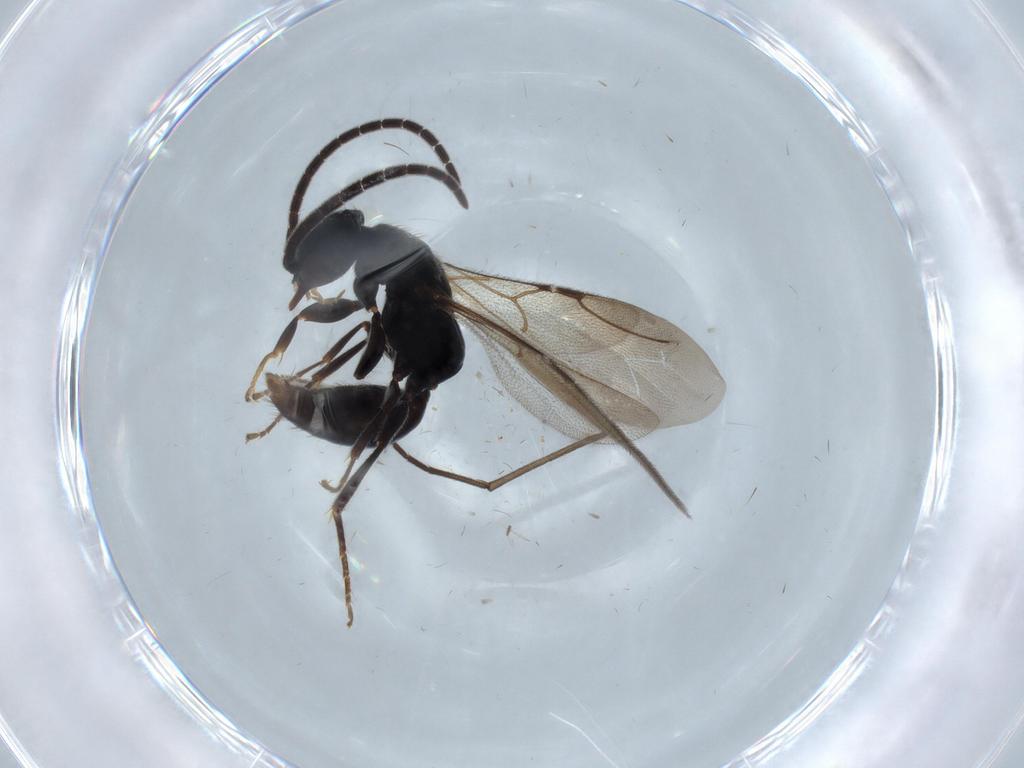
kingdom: Animalia
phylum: Arthropoda
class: Insecta
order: Hymenoptera
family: Bethylidae
